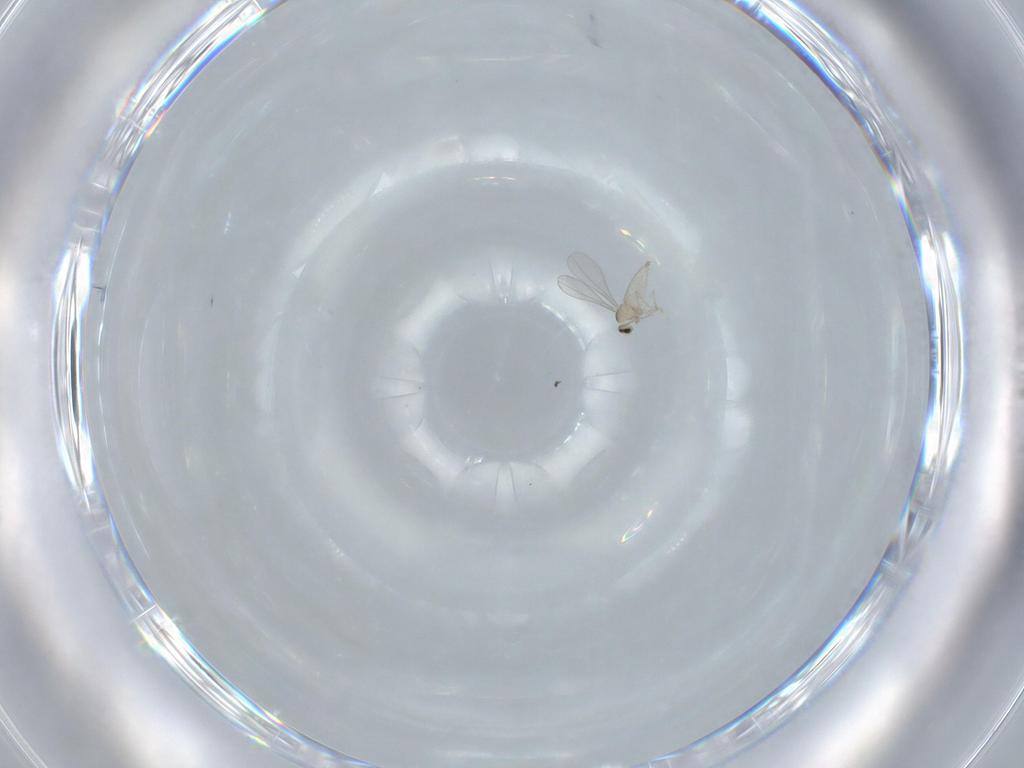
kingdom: Animalia
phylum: Arthropoda
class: Insecta
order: Diptera
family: Cecidomyiidae
